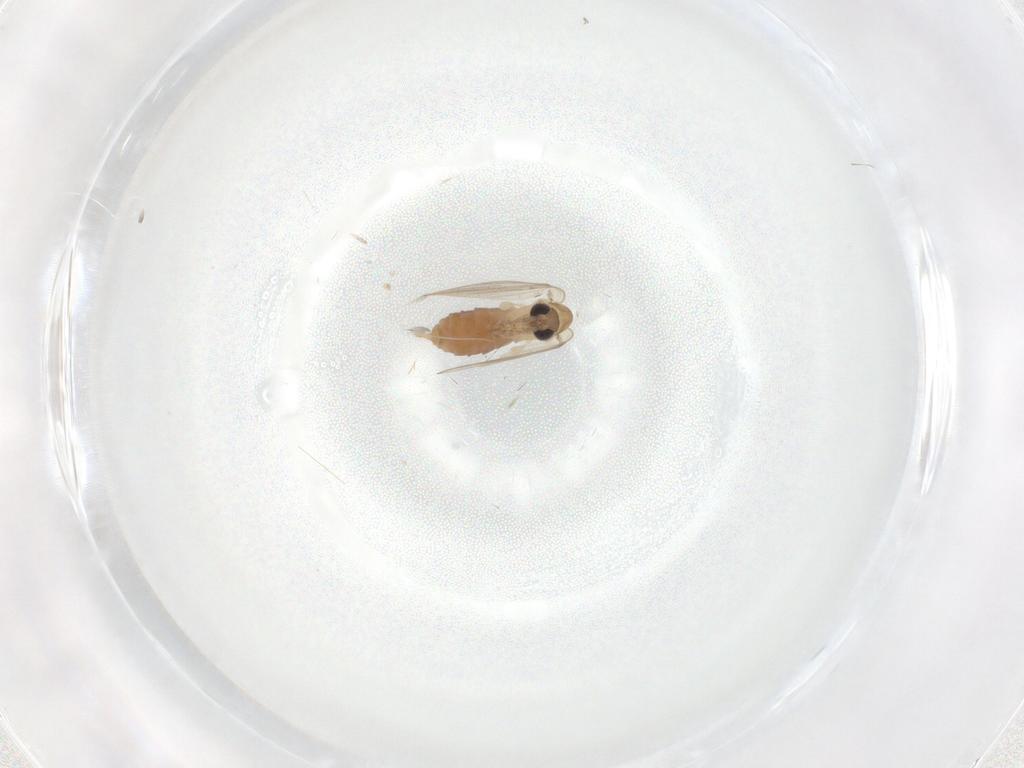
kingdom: Animalia
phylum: Arthropoda
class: Insecta
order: Diptera
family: Psychodidae
